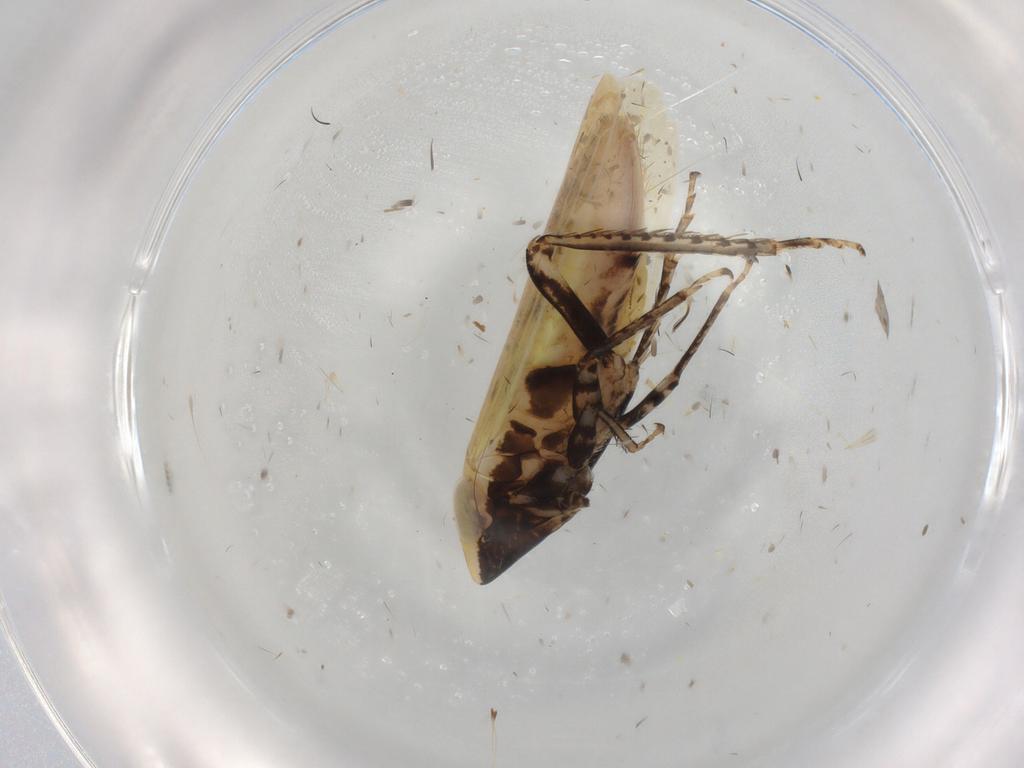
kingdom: Animalia
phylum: Arthropoda
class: Insecta
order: Hemiptera
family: Cicadellidae
